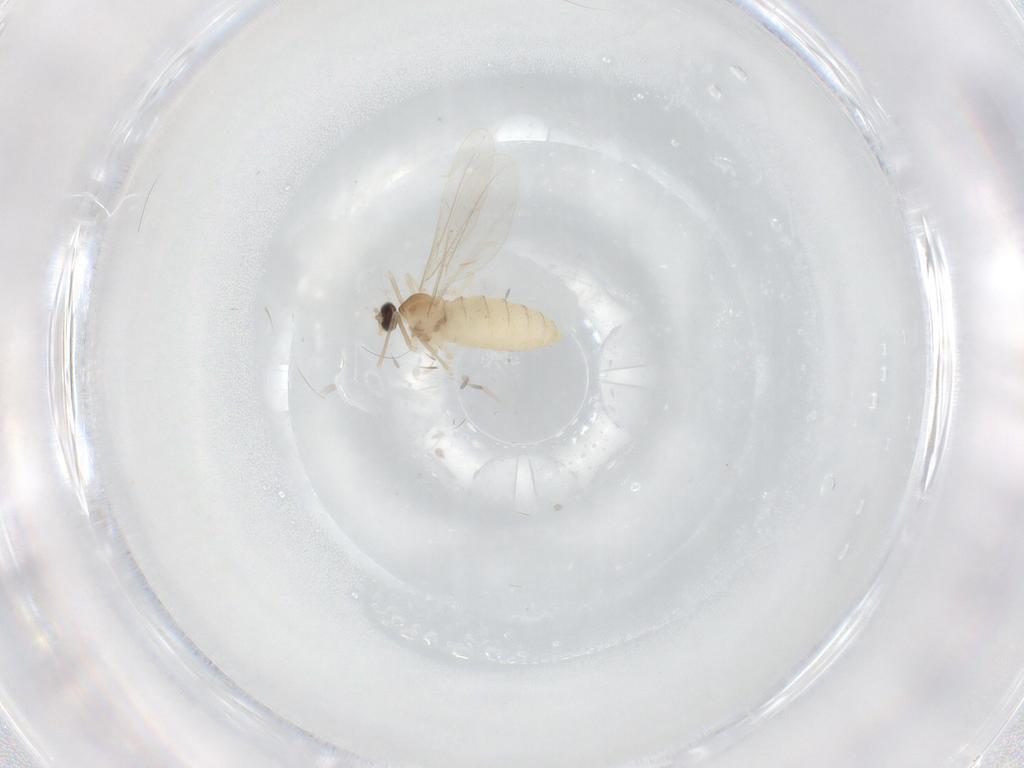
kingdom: Animalia
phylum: Arthropoda
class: Insecta
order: Diptera
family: Cecidomyiidae
